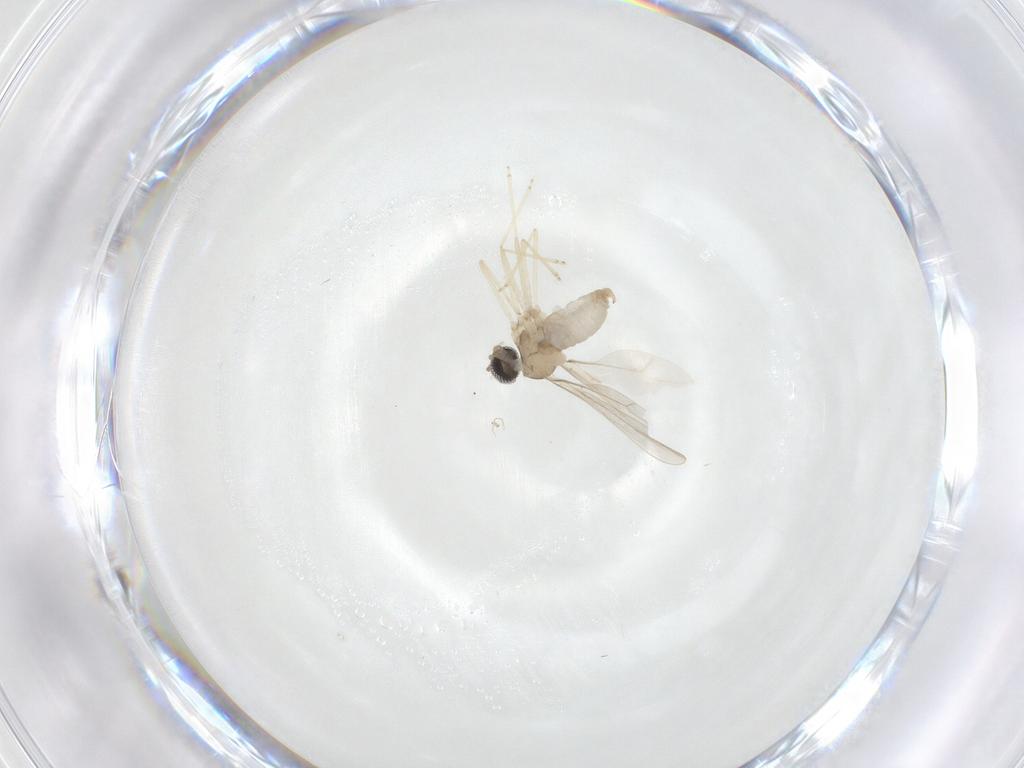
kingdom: Animalia
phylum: Arthropoda
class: Insecta
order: Diptera
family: Cecidomyiidae
